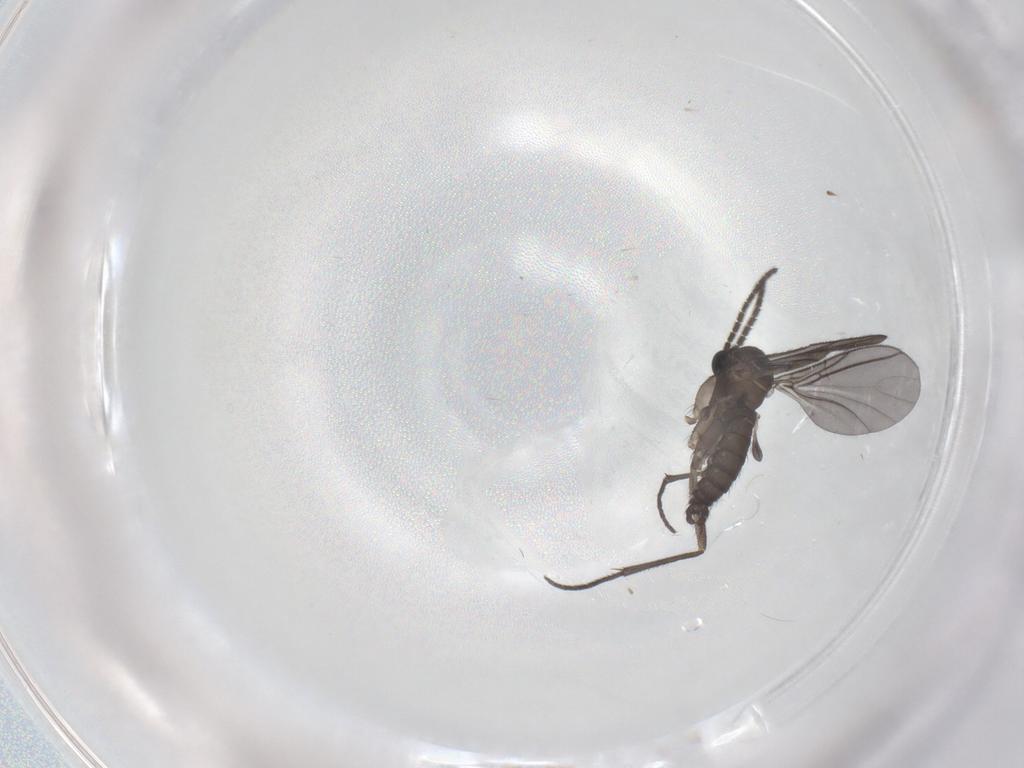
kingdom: Animalia
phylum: Arthropoda
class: Insecta
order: Diptera
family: Sciaridae
